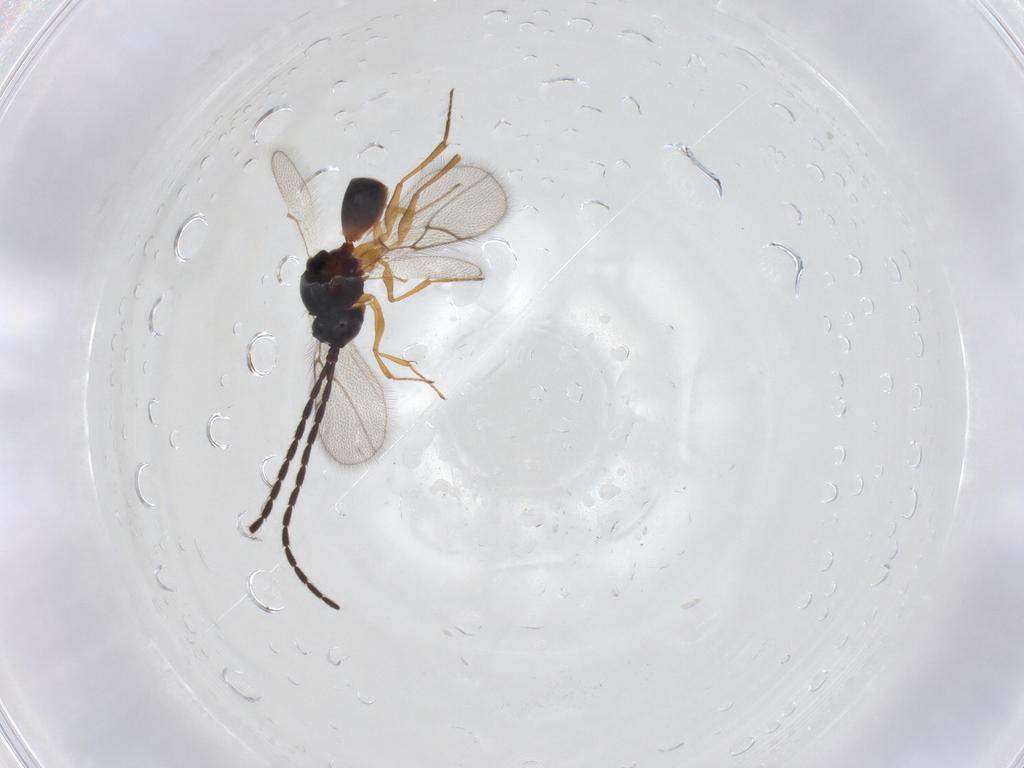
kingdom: Animalia
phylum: Arthropoda
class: Insecta
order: Hymenoptera
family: Figitidae
